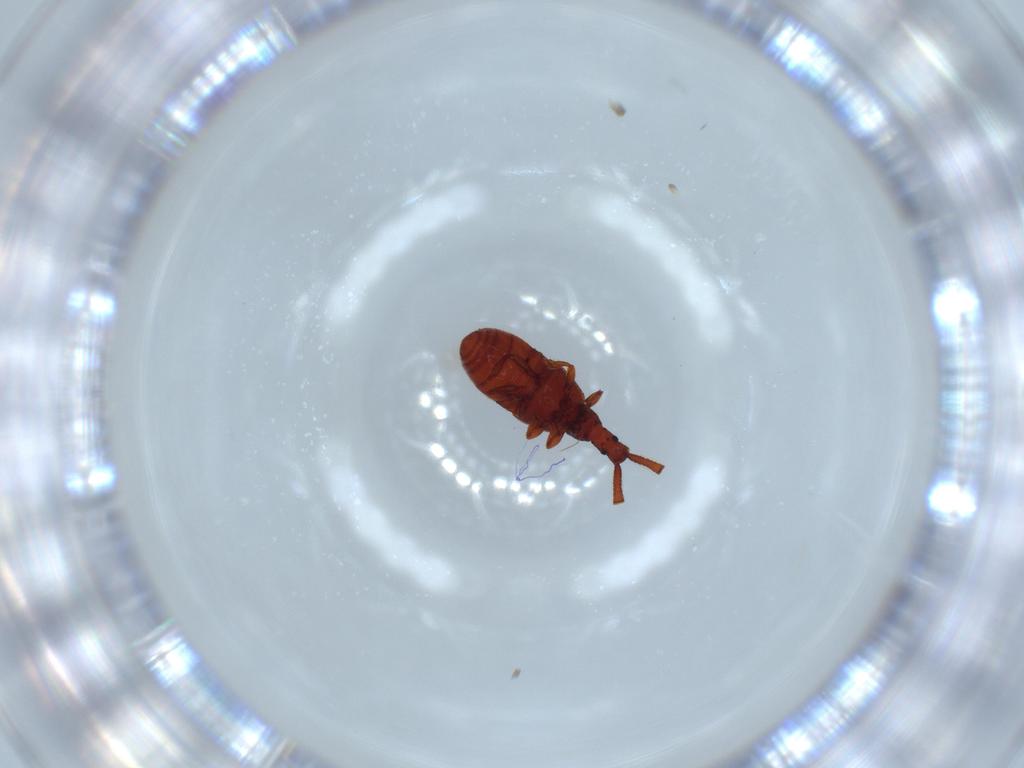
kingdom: Animalia
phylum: Arthropoda
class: Insecta
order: Coleoptera
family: Staphylinidae
